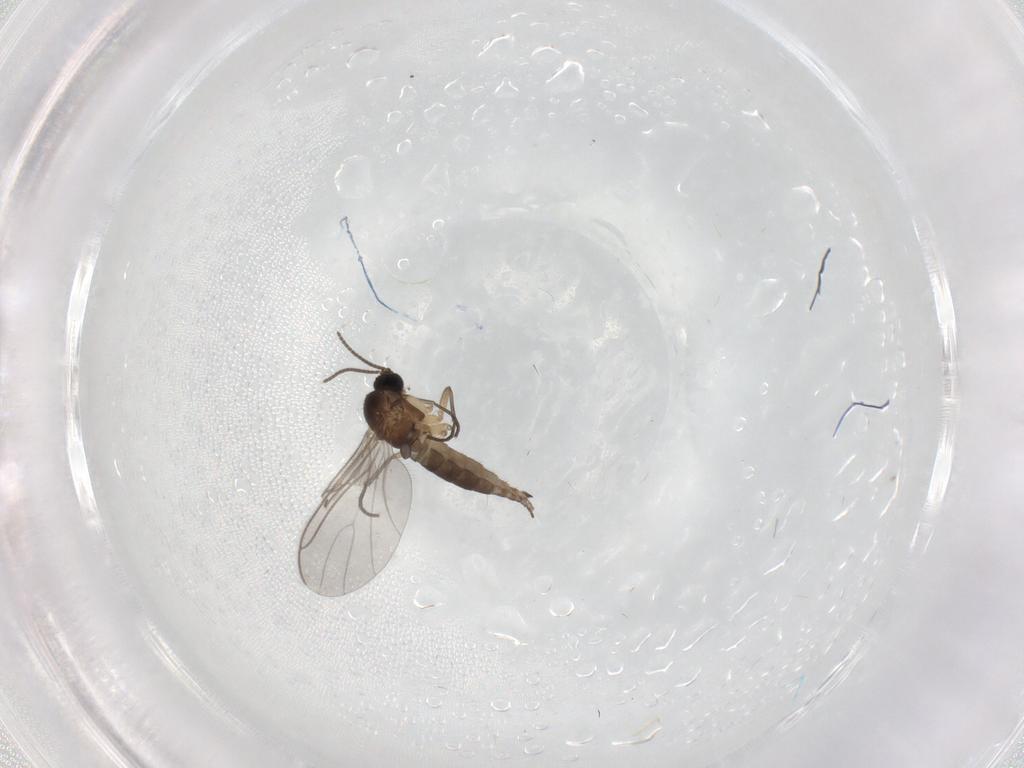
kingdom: Animalia
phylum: Arthropoda
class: Insecta
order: Diptera
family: Sciaridae
